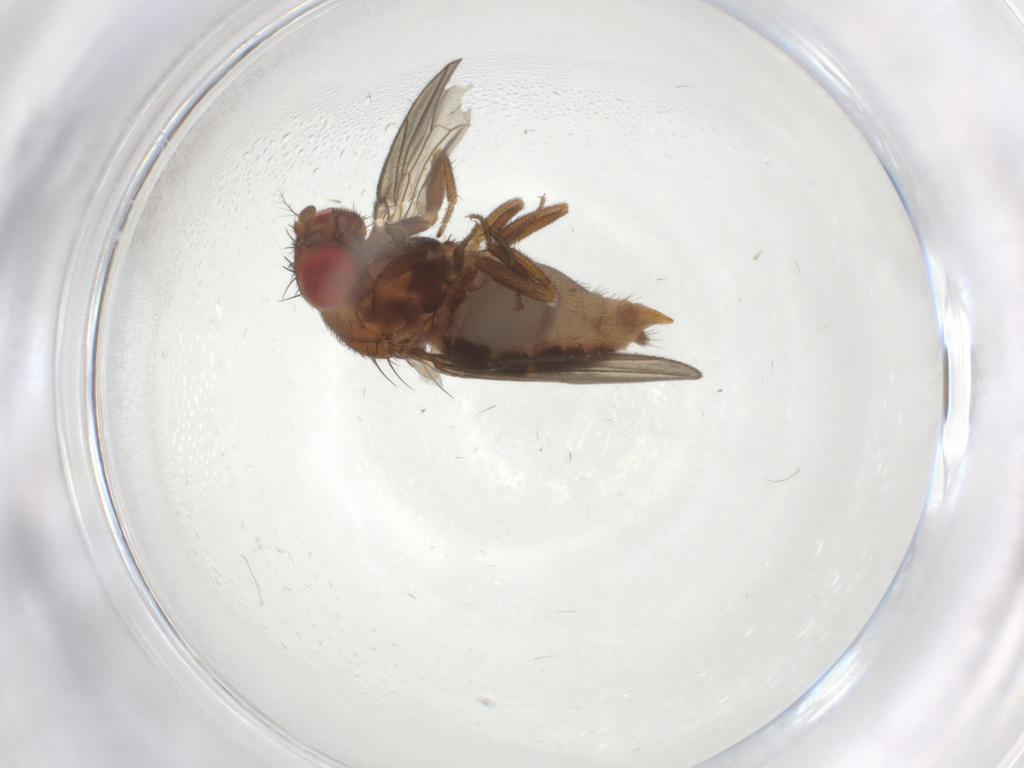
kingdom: Animalia
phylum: Arthropoda
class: Insecta
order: Diptera
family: Drosophilidae
